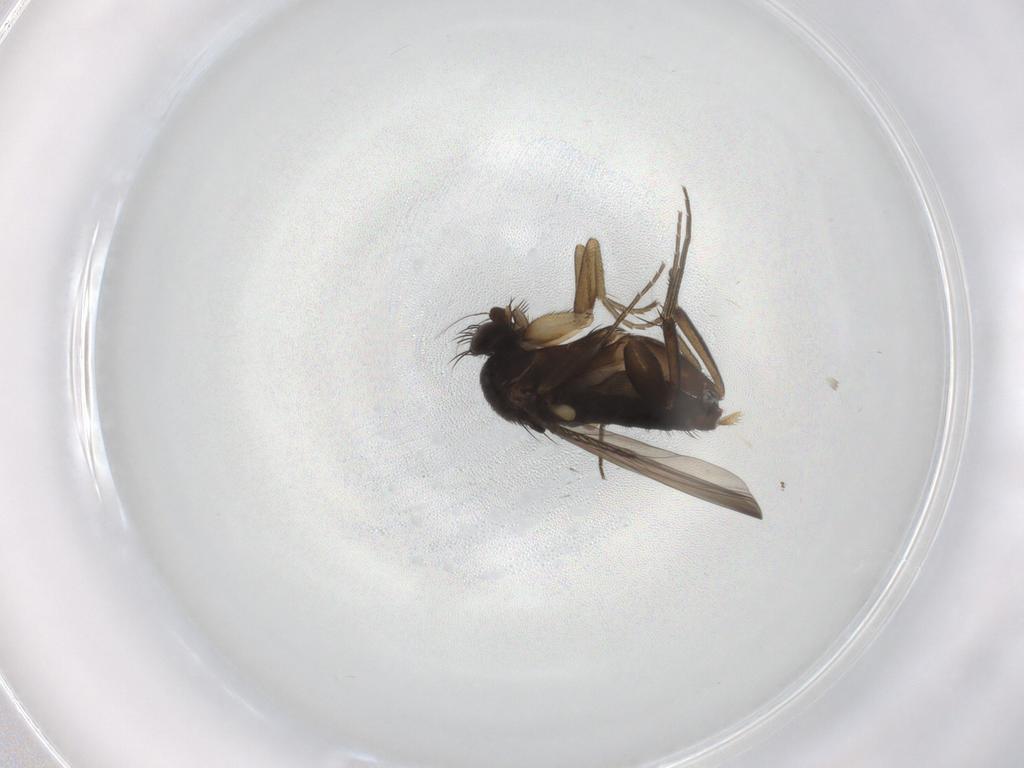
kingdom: Animalia
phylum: Arthropoda
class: Insecta
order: Diptera
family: Phoridae
